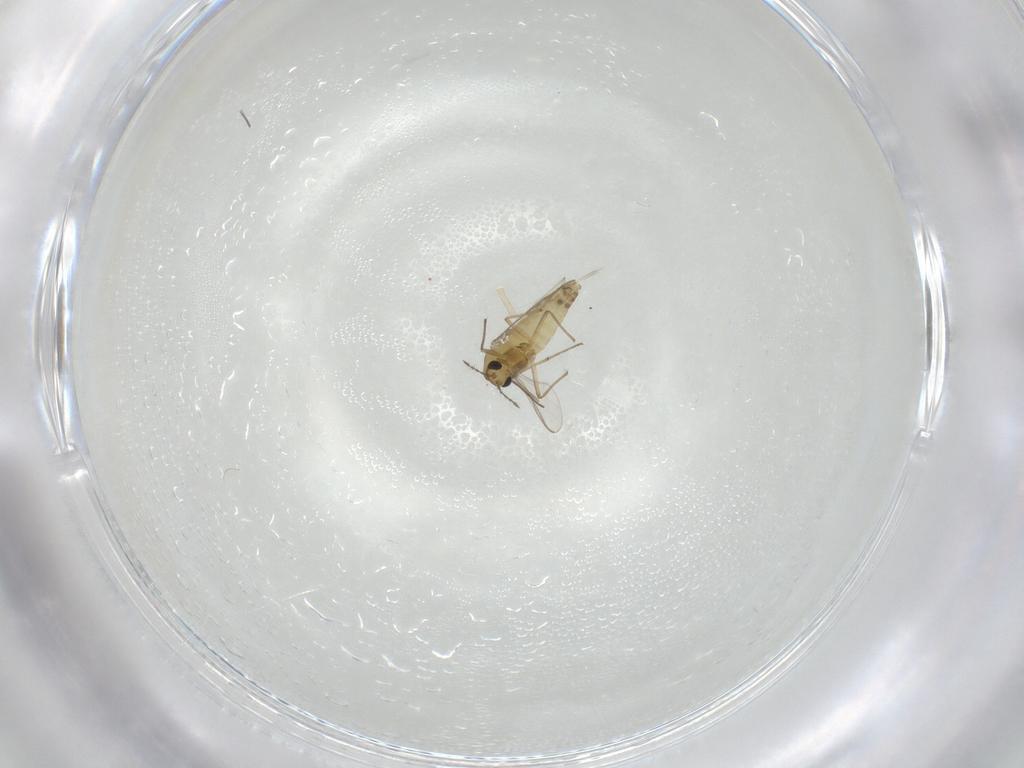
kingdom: Animalia
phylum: Arthropoda
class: Insecta
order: Diptera
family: Chironomidae
